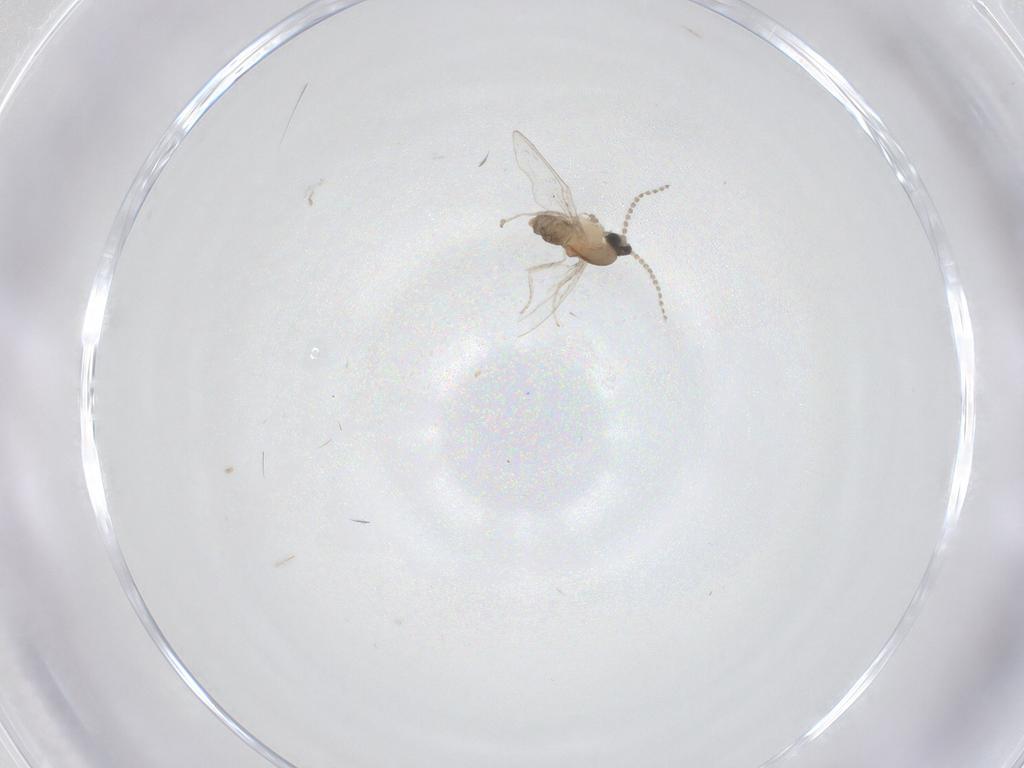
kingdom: Animalia
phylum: Arthropoda
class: Insecta
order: Diptera
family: Cecidomyiidae
